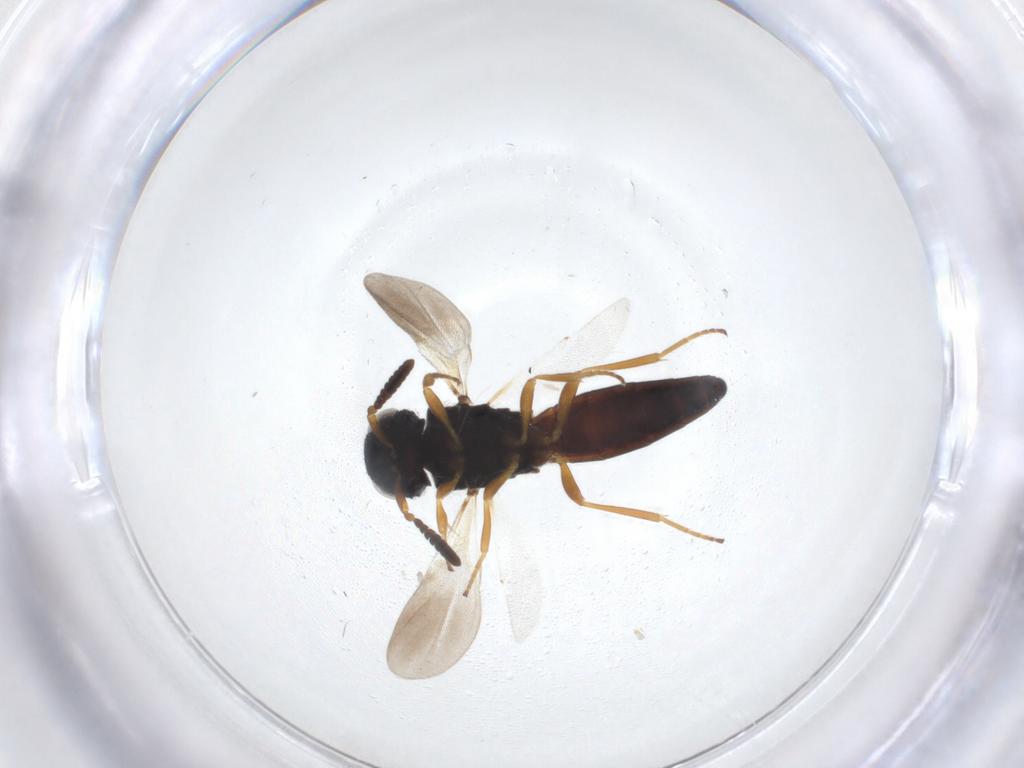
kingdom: Animalia
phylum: Arthropoda
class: Insecta
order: Hymenoptera
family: Scelionidae
